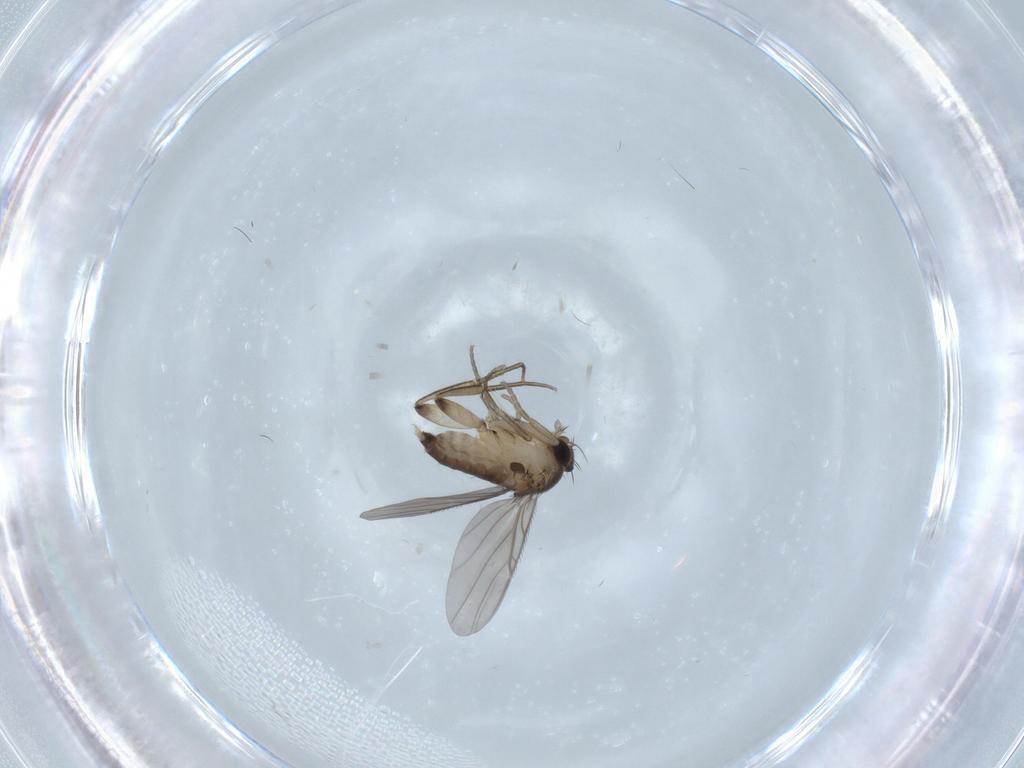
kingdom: Animalia
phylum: Arthropoda
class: Insecta
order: Diptera
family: Phoridae
